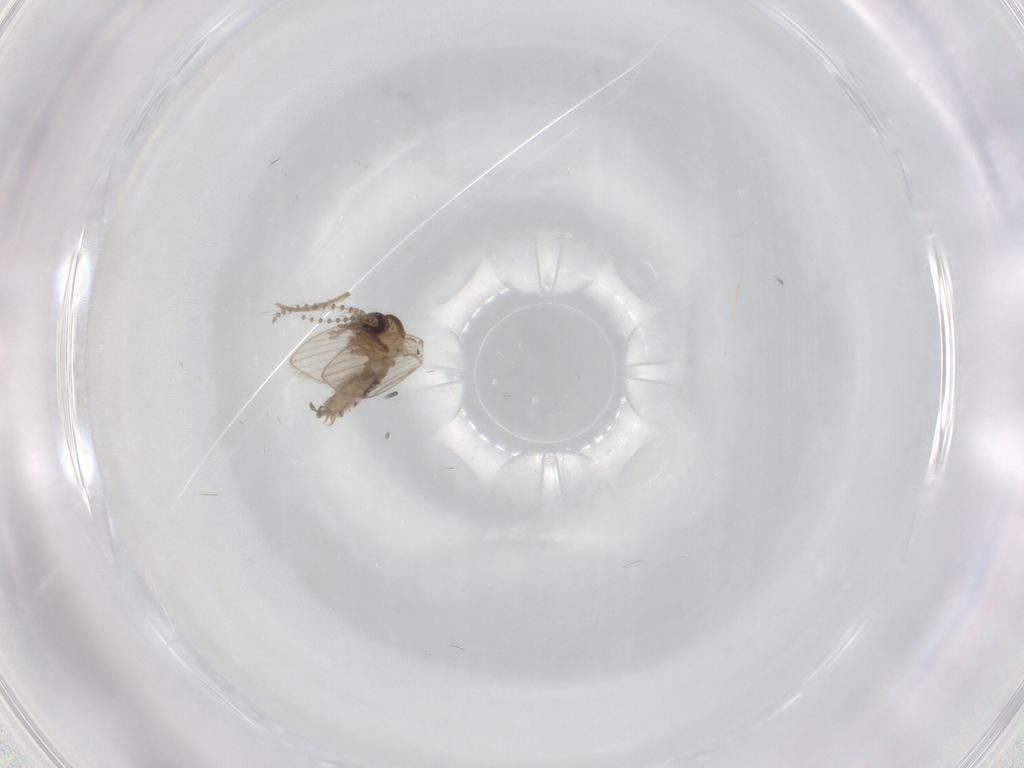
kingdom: Animalia
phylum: Arthropoda
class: Insecta
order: Diptera
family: Psychodidae
